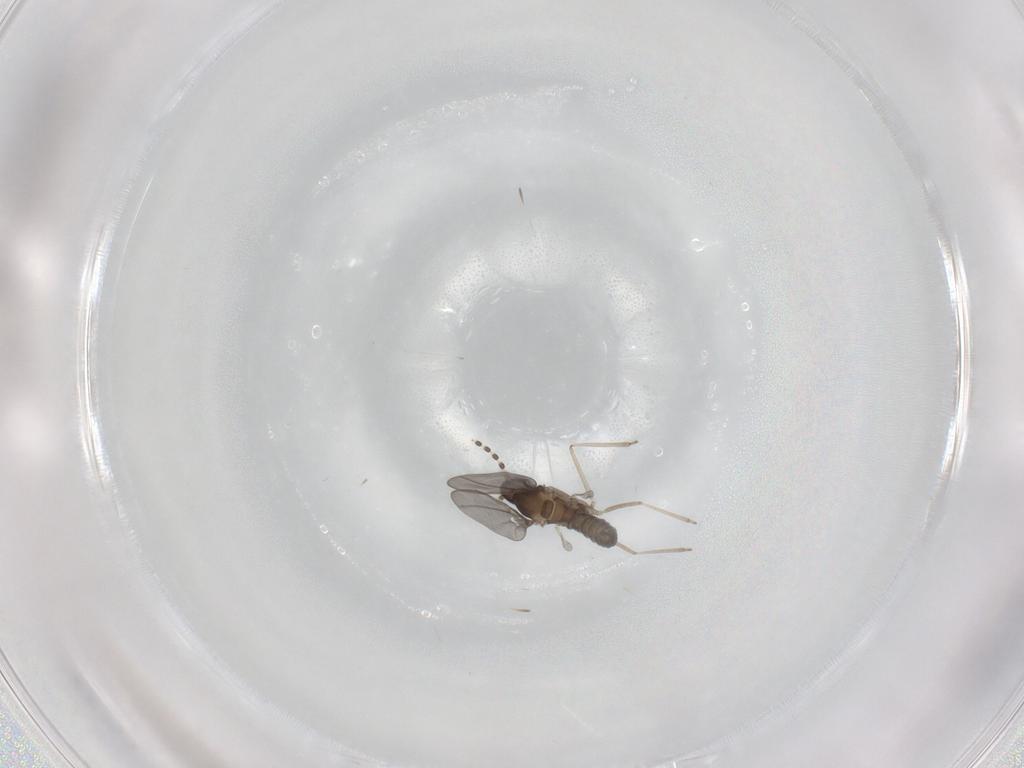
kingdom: Animalia
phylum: Arthropoda
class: Insecta
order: Diptera
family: Cecidomyiidae
